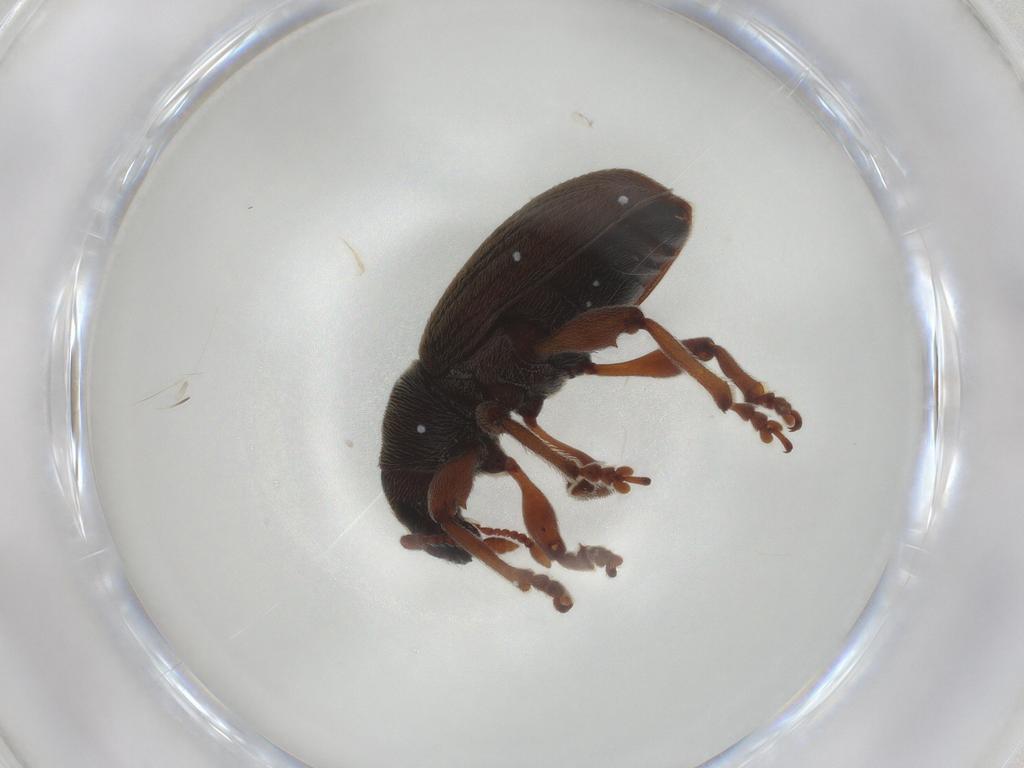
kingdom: Animalia
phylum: Arthropoda
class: Insecta
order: Coleoptera
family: Curculionidae
